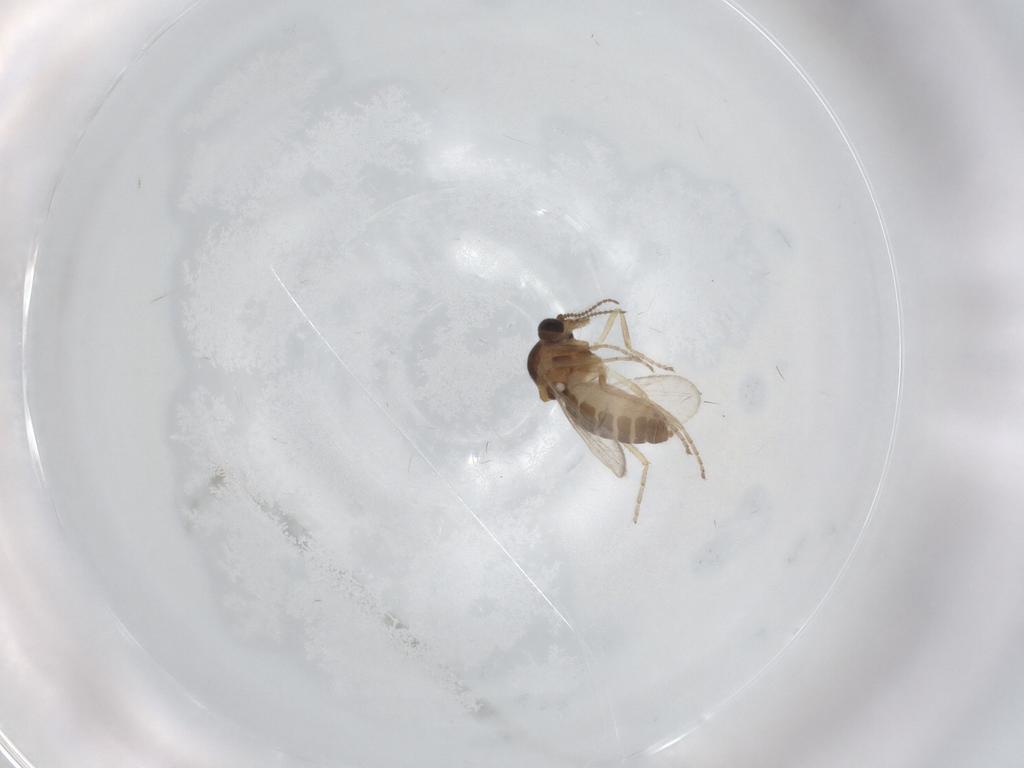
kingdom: Animalia
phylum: Arthropoda
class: Insecta
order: Diptera
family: Ceratopogonidae
